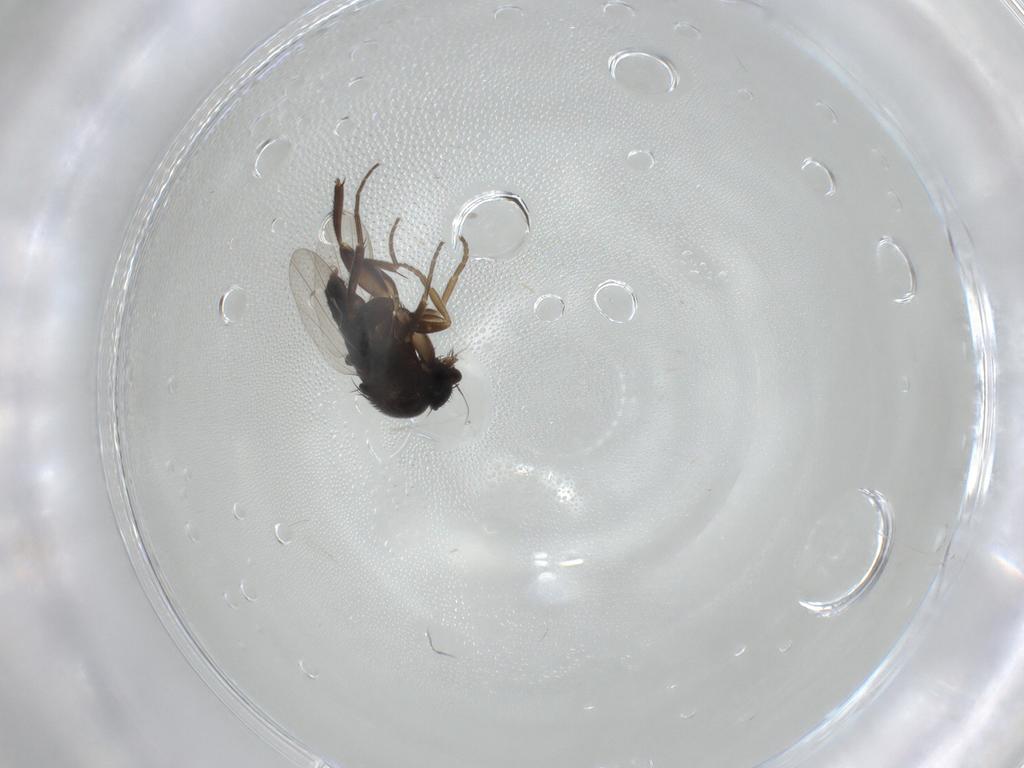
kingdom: Animalia
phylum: Arthropoda
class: Insecta
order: Diptera
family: Phoridae
